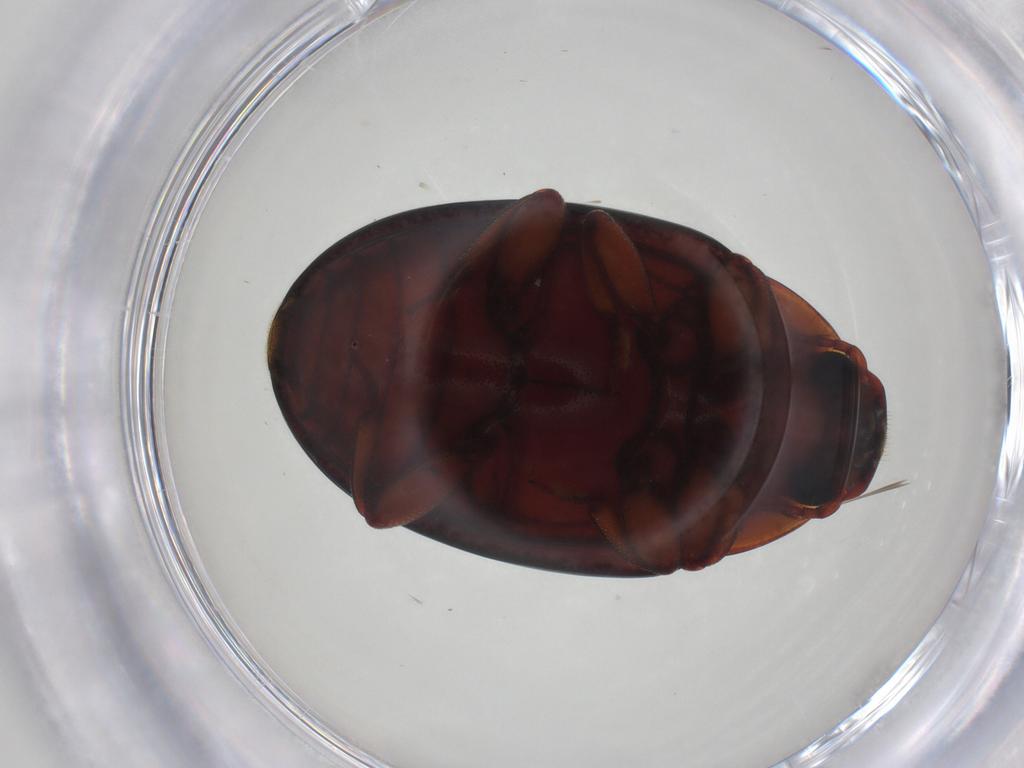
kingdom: Animalia
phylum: Arthropoda
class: Insecta
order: Coleoptera
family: Zopheridae
